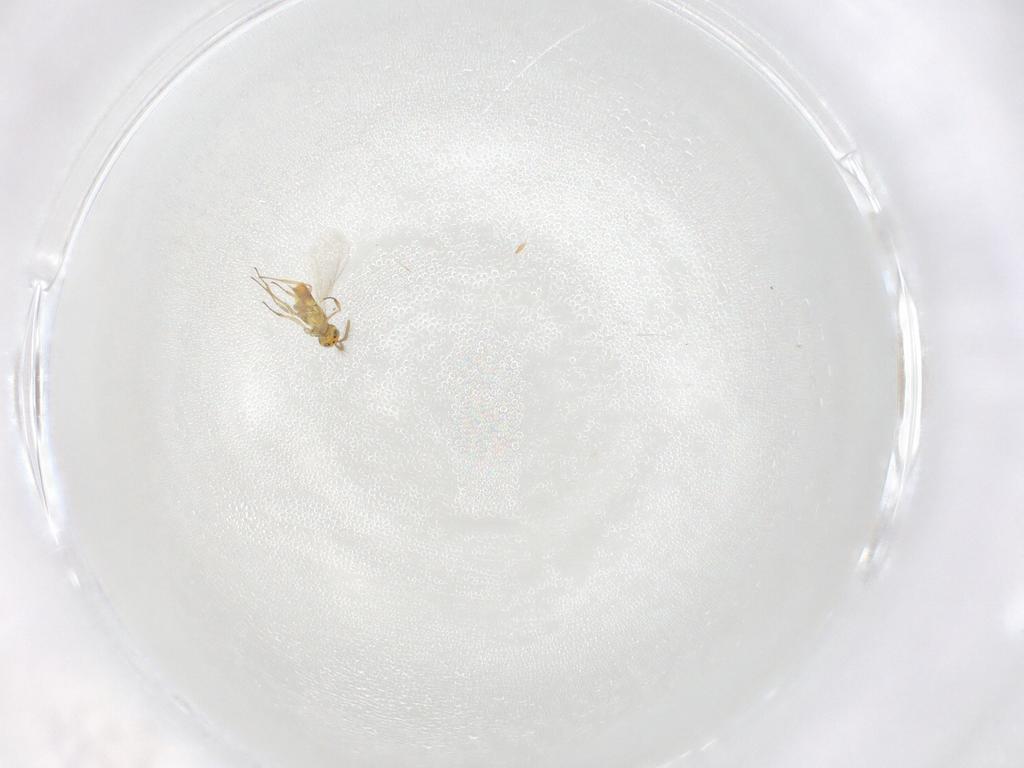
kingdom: Animalia
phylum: Arthropoda
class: Insecta
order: Hymenoptera
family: Aphelinidae
